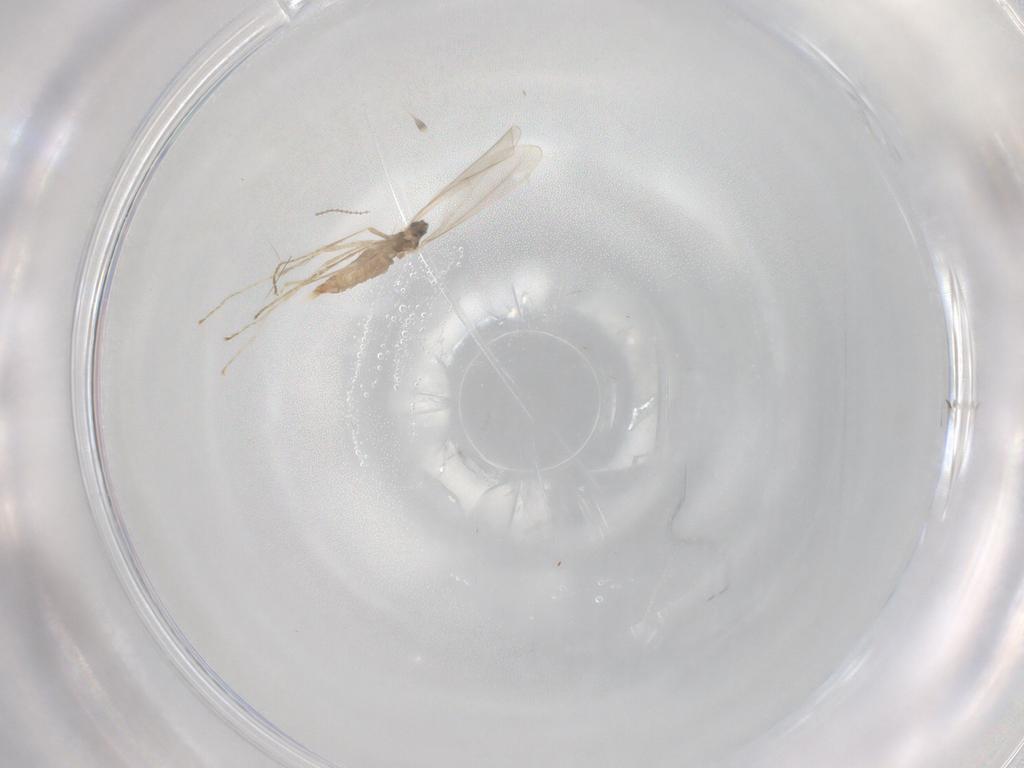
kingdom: Animalia
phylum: Arthropoda
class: Insecta
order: Diptera
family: Cecidomyiidae
